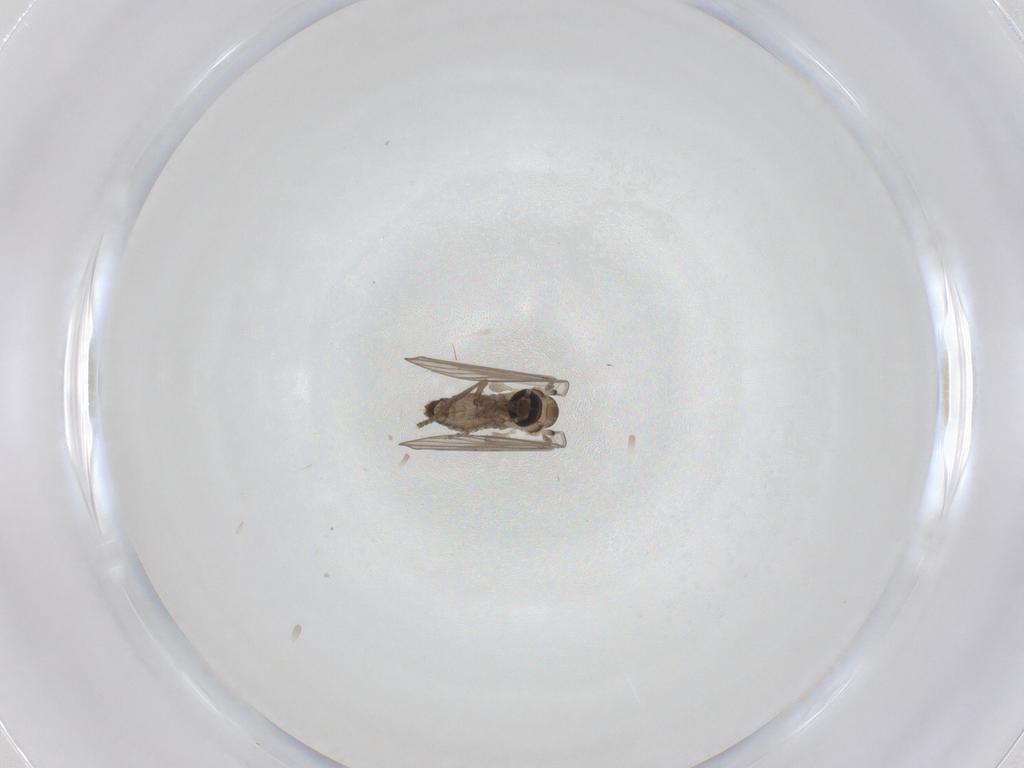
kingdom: Animalia
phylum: Arthropoda
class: Insecta
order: Diptera
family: Psychodidae
